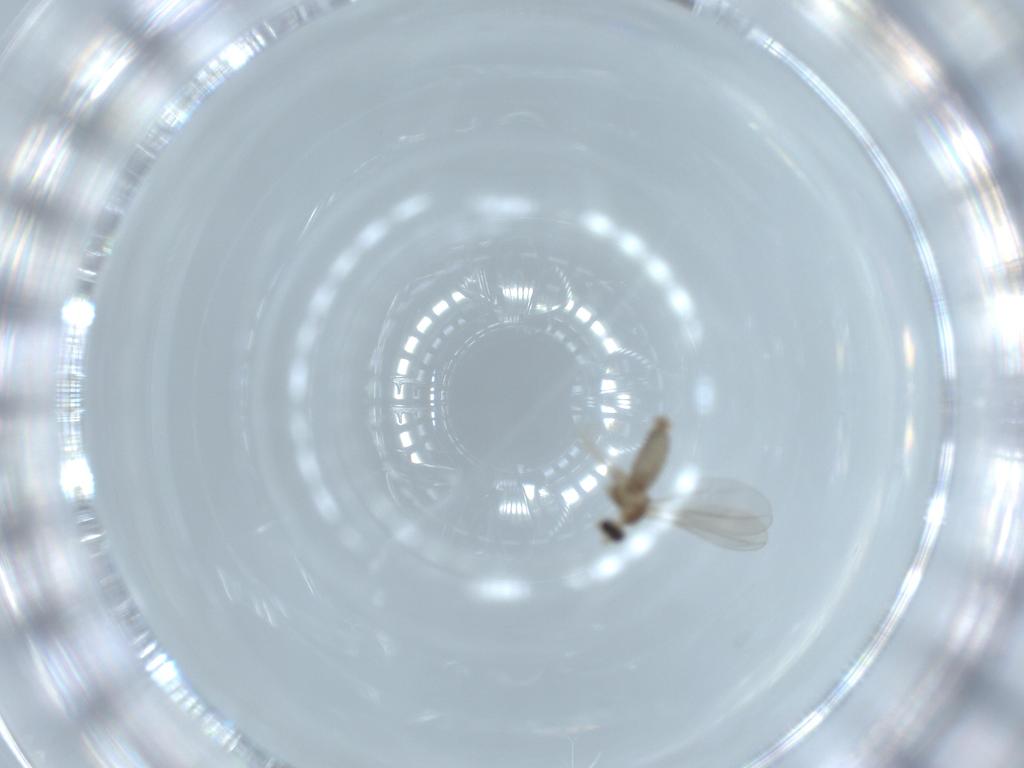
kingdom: Animalia
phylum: Arthropoda
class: Insecta
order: Diptera
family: Cecidomyiidae
